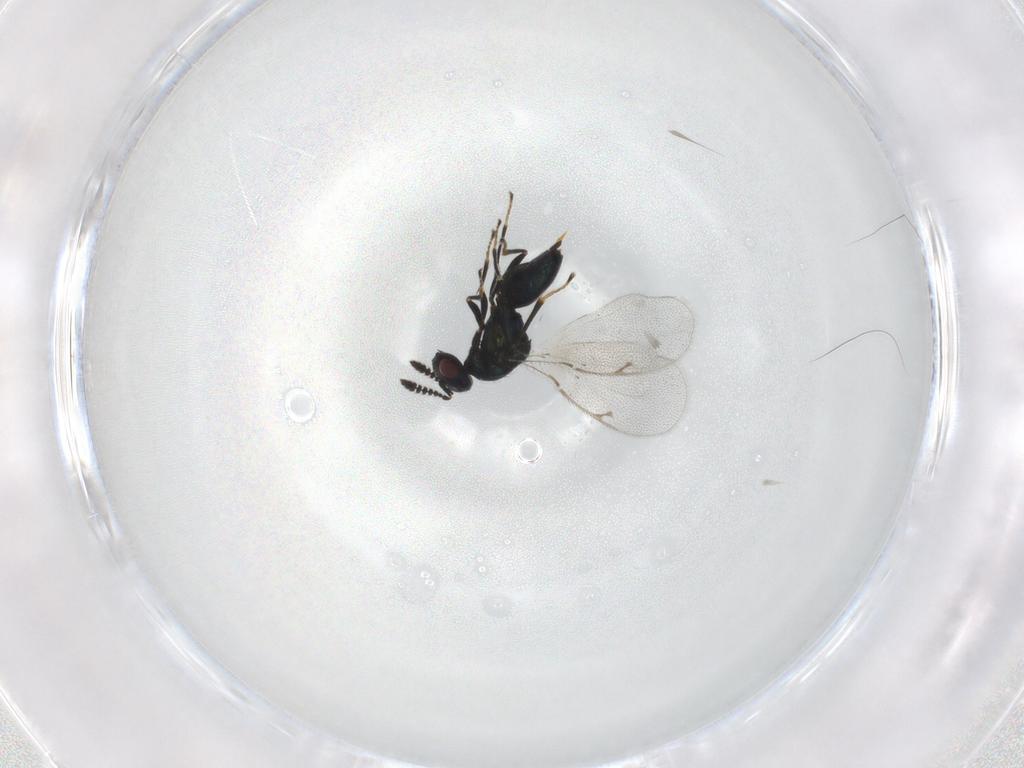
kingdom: Animalia
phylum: Arthropoda
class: Insecta
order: Hymenoptera
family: Pteromalidae
